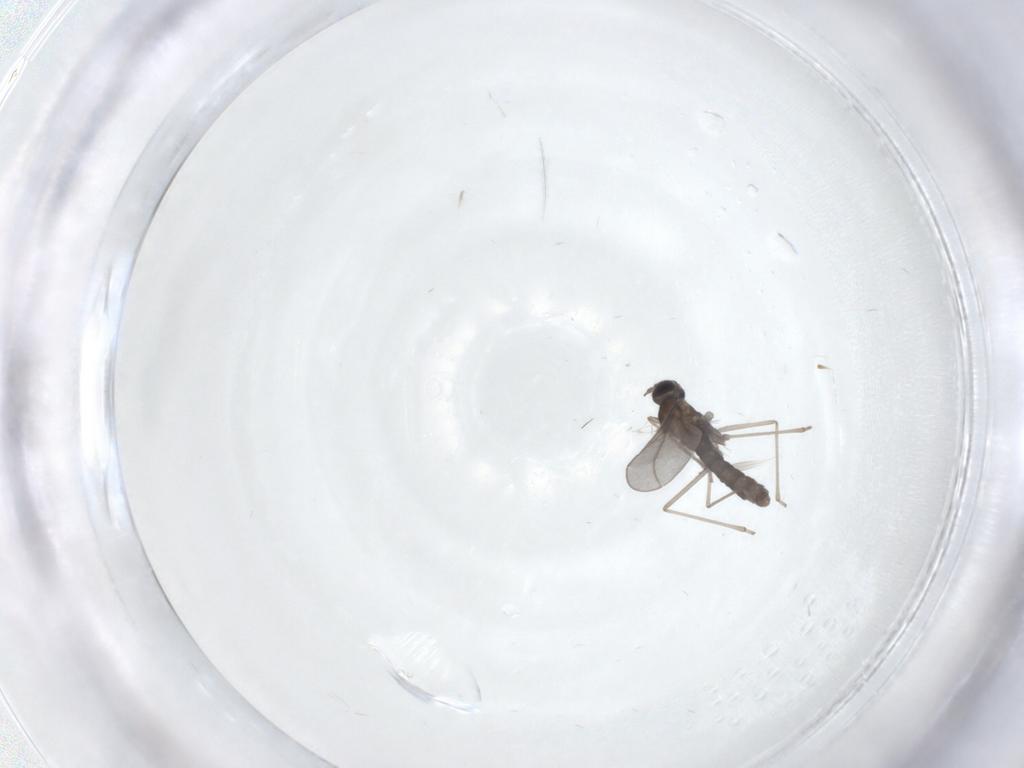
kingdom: Animalia
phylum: Arthropoda
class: Insecta
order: Diptera
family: Cecidomyiidae
